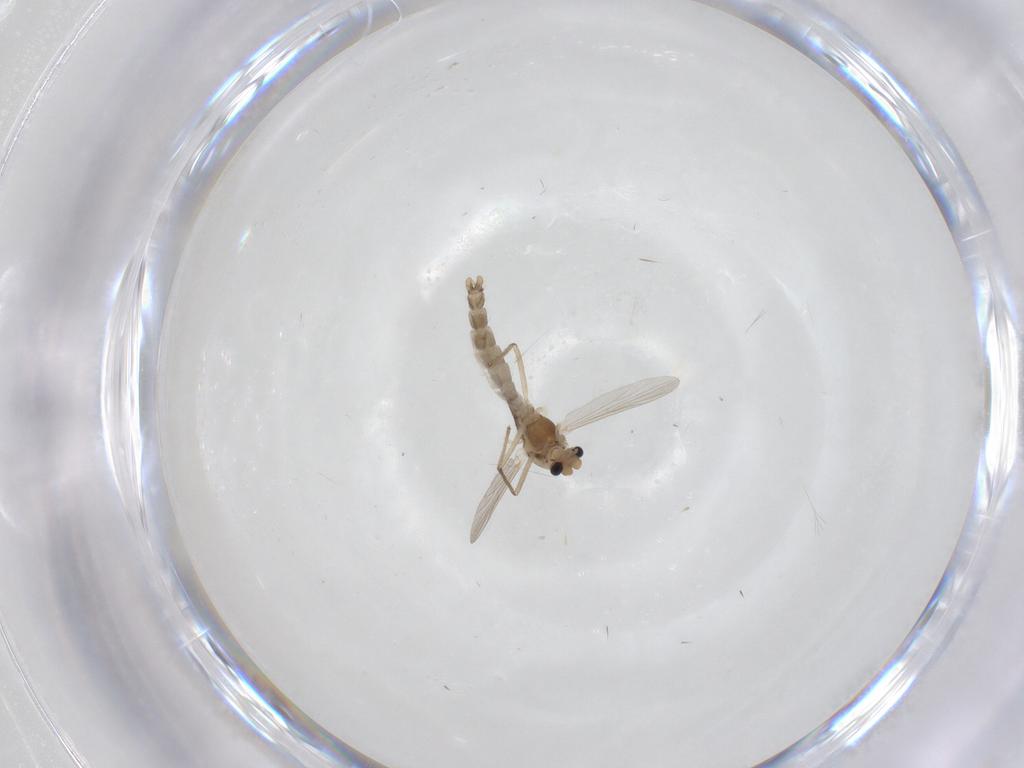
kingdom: Animalia
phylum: Arthropoda
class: Insecta
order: Diptera
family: Chironomidae
